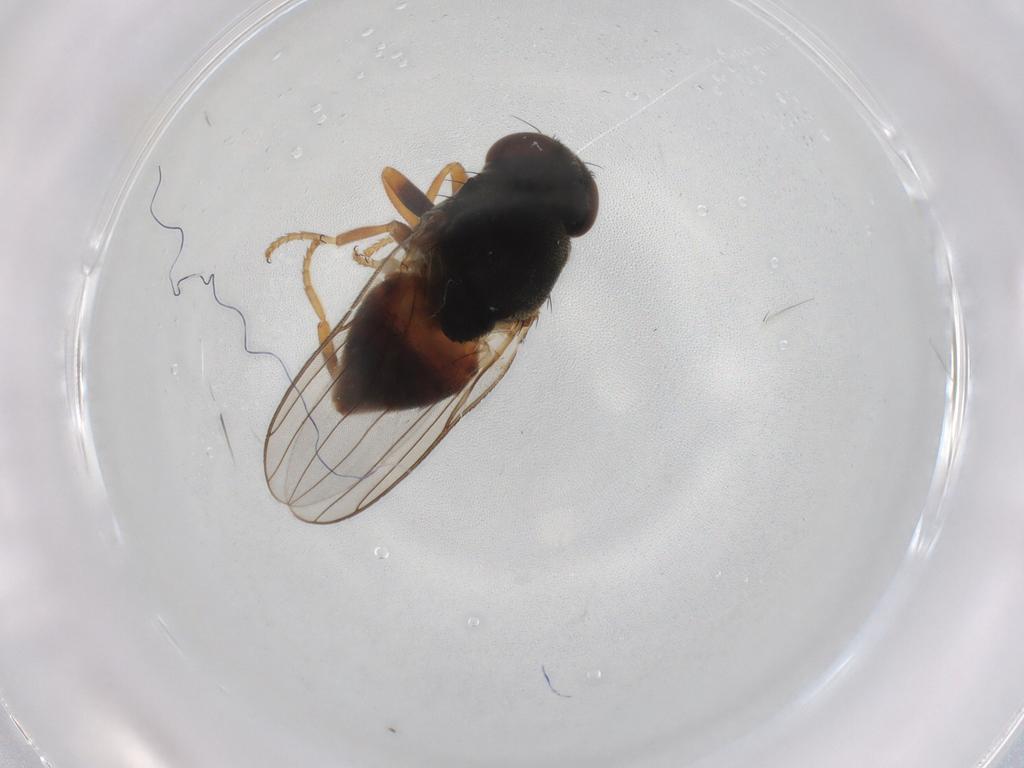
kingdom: Animalia
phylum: Arthropoda
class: Insecta
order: Diptera
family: Chloropidae
